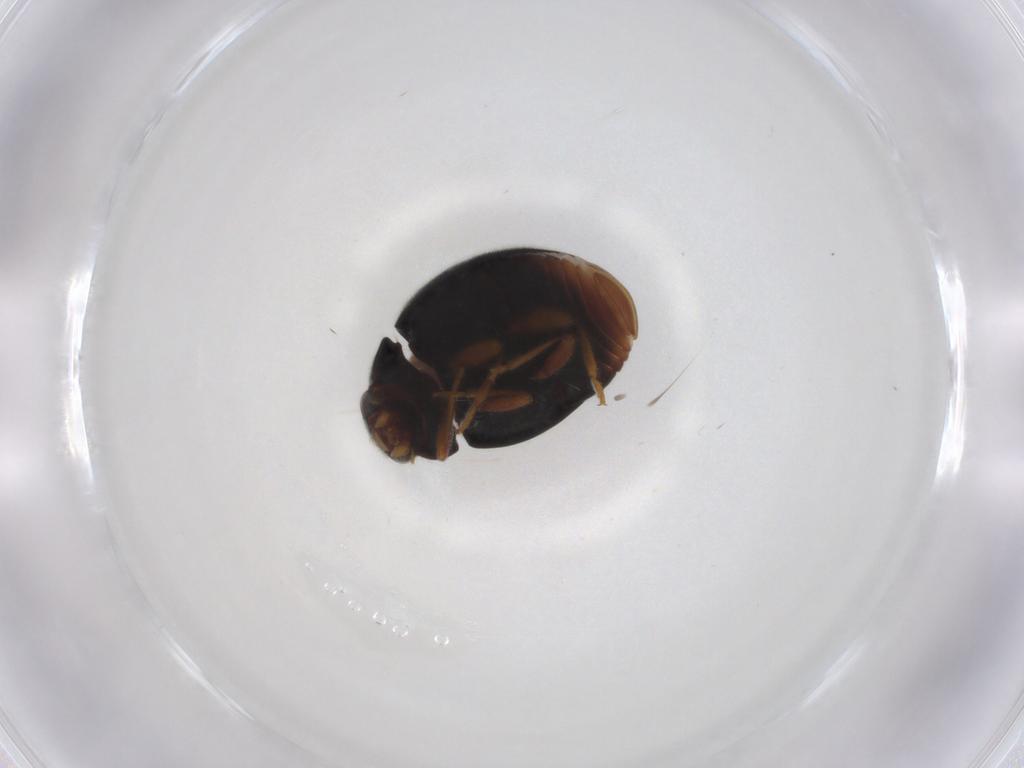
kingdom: Animalia
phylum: Arthropoda
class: Insecta
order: Coleoptera
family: Coccinellidae
